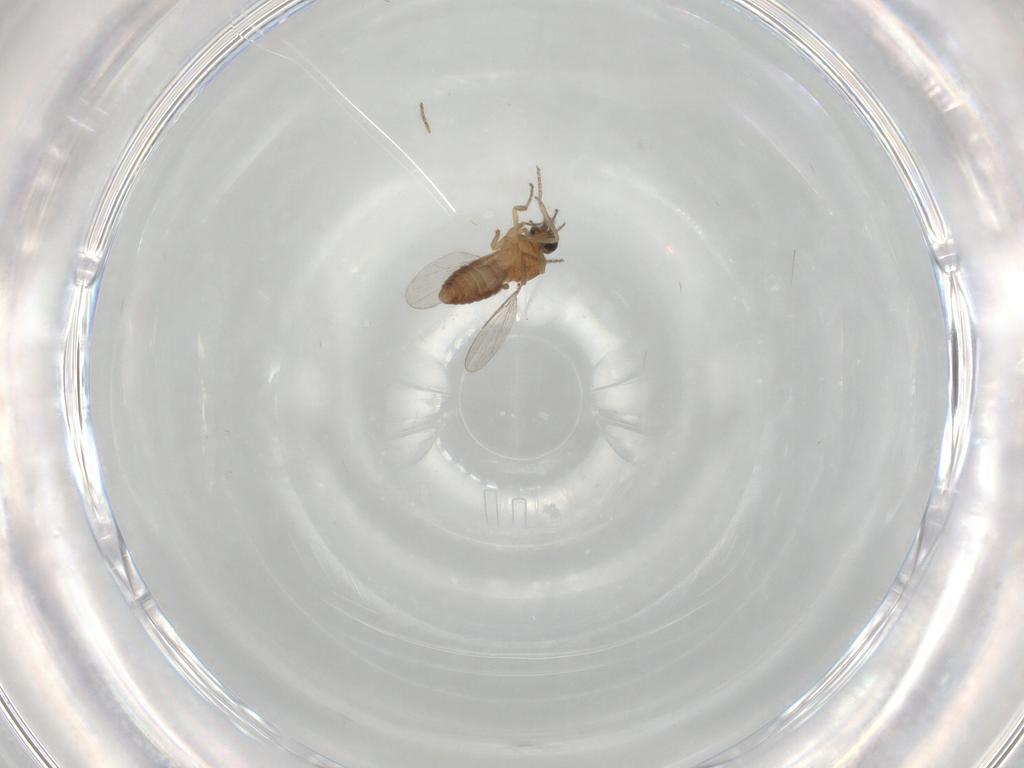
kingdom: Animalia
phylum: Arthropoda
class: Insecta
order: Diptera
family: Ceratopogonidae
